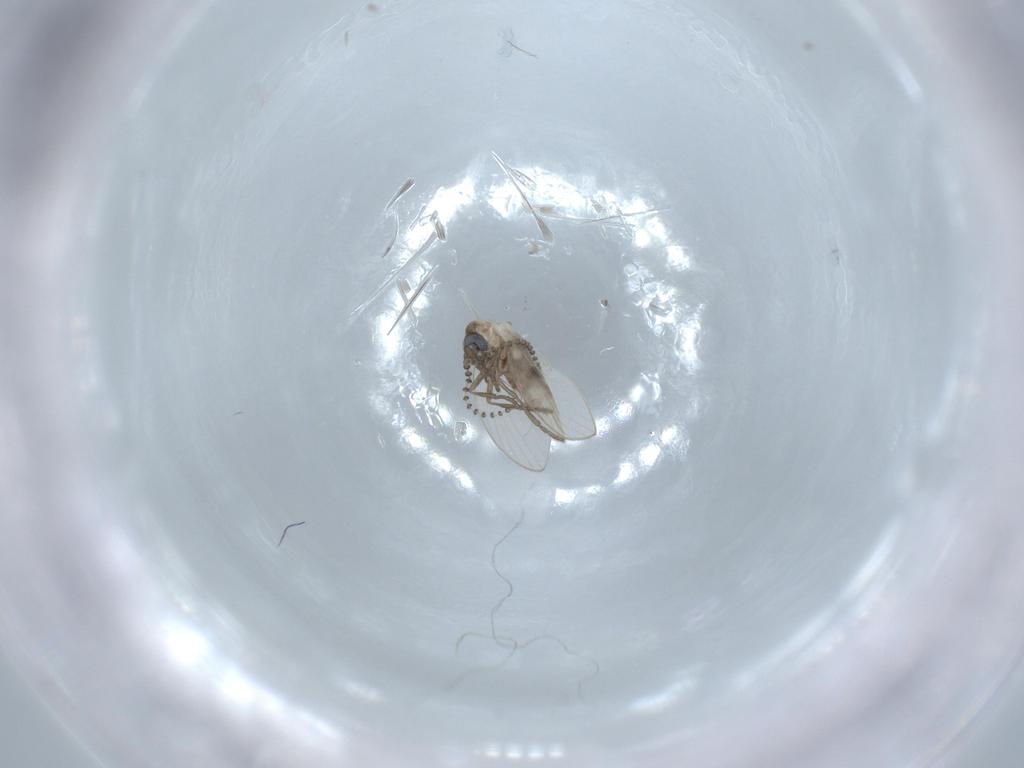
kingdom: Animalia
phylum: Arthropoda
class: Insecta
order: Diptera
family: Psychodidae
